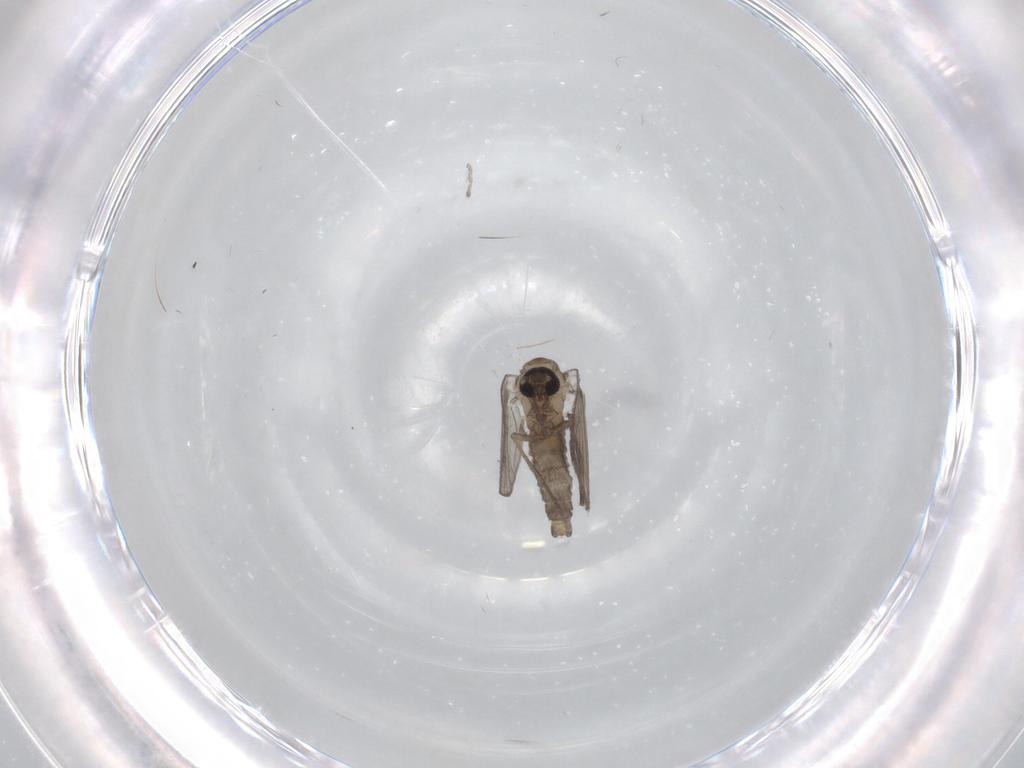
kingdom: Animalia
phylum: Arthropoda
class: Insecta
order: Diptera
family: Psychodidae
